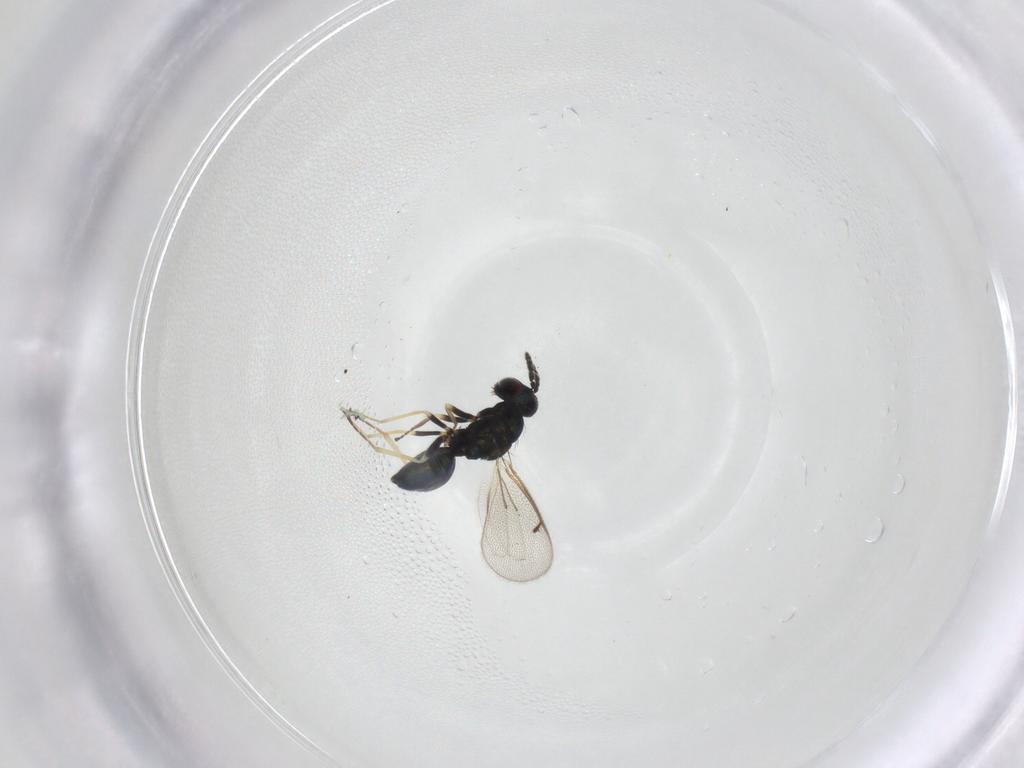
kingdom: Animalia
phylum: Arthropoda
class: Insecta
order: Hymenoptera
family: Eulophidae
